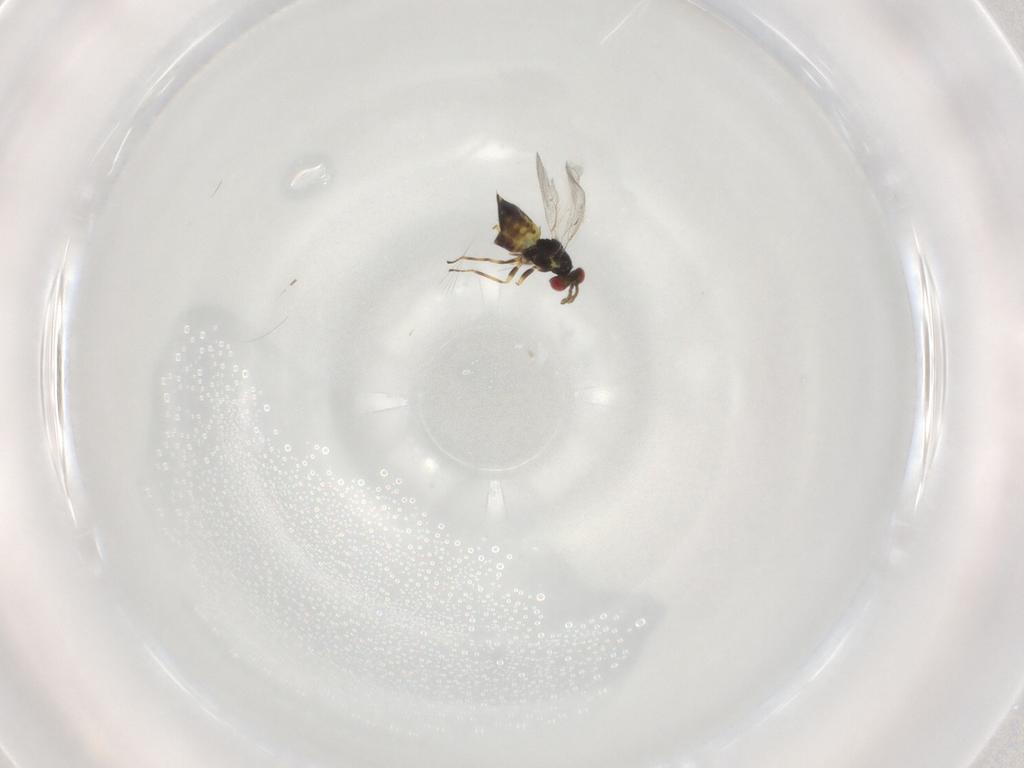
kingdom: Animalia
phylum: Arthropoda
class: Insecta
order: Hymenoptera
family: Eulophidae
